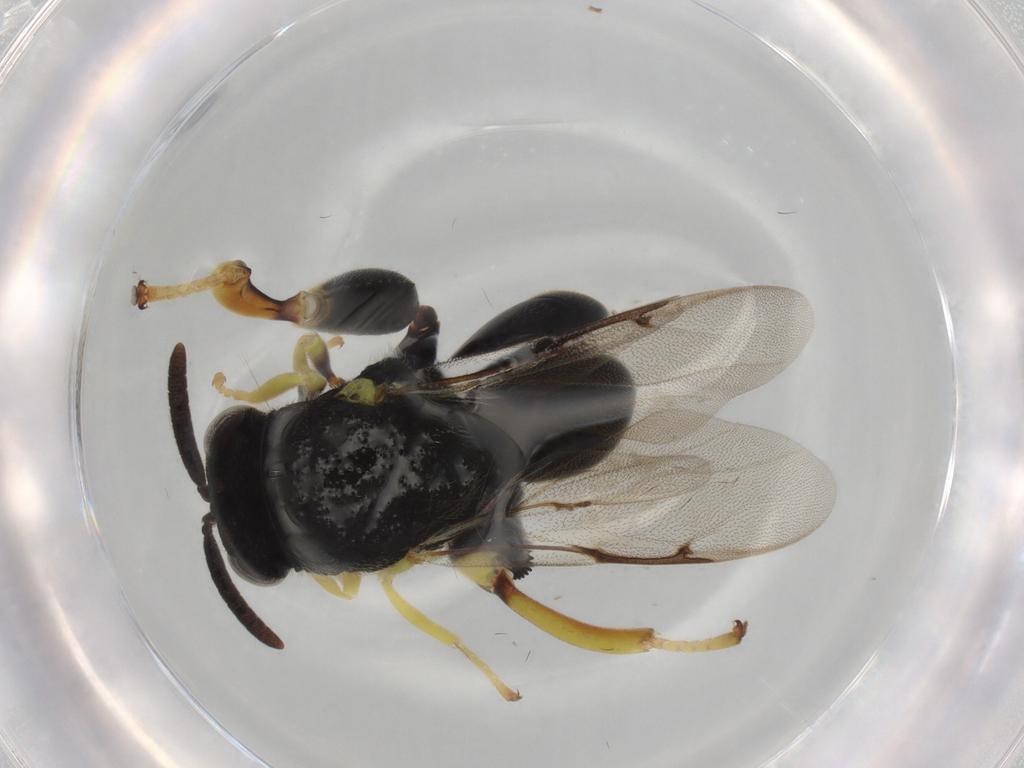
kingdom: Animalia
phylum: Arthropoda
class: Insecta
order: Hymenoptera
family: Chalcididae
